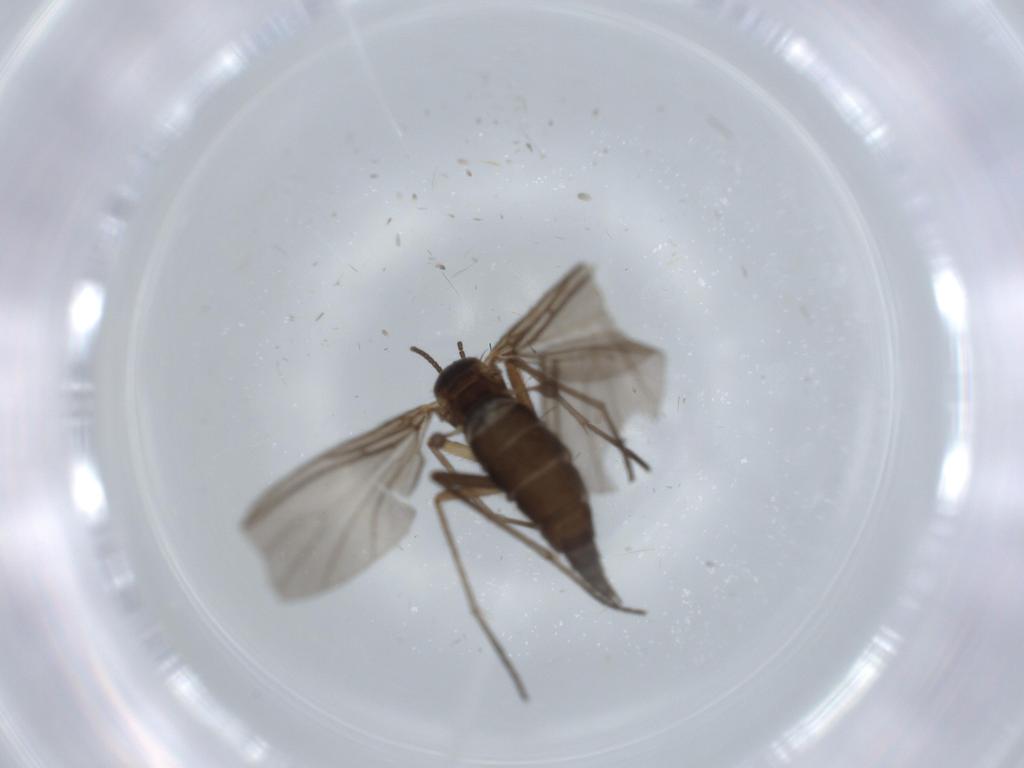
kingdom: Animalia
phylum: Arthropoda
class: Insecta
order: Diptera
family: Sciaridae
